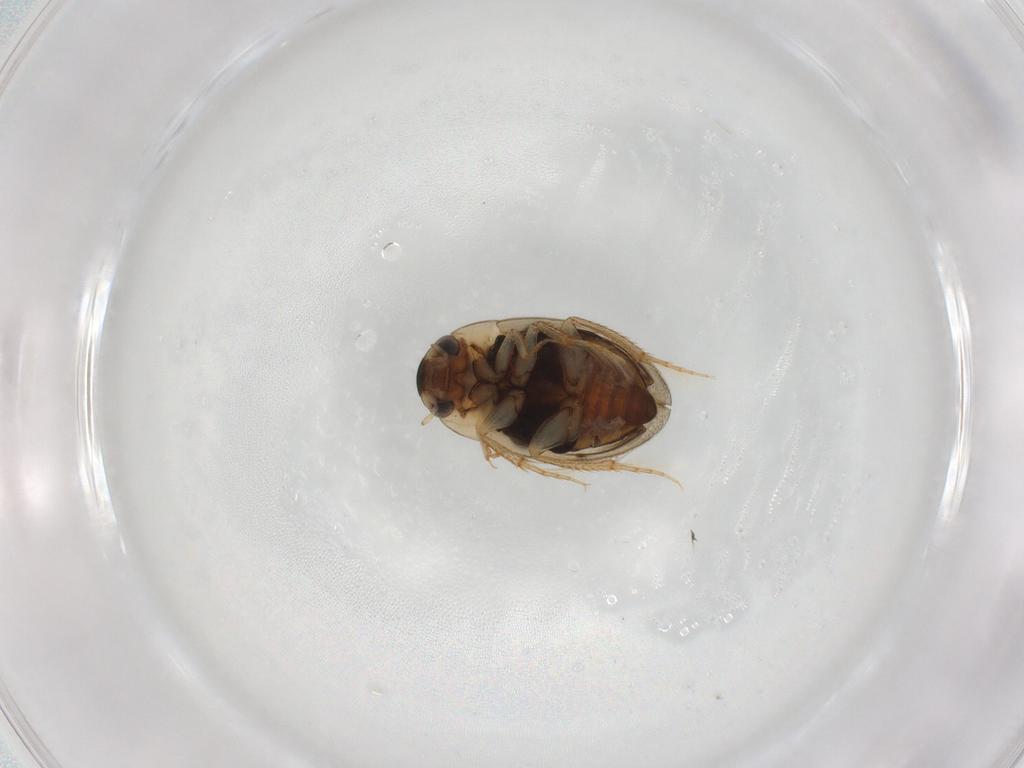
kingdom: Animalia
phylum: Arthropoda
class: Insecta
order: Coleoptera
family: Hydrophilidae
